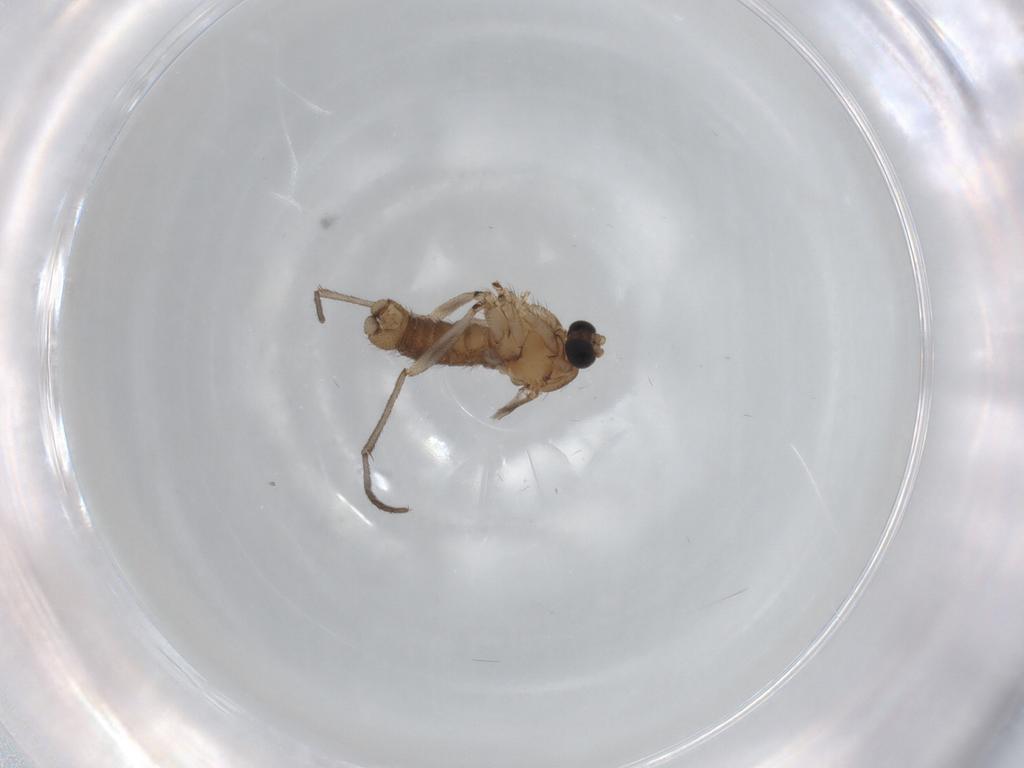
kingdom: Animalia
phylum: Arthropoda
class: Insecta
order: Diptera
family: Sciaridae
